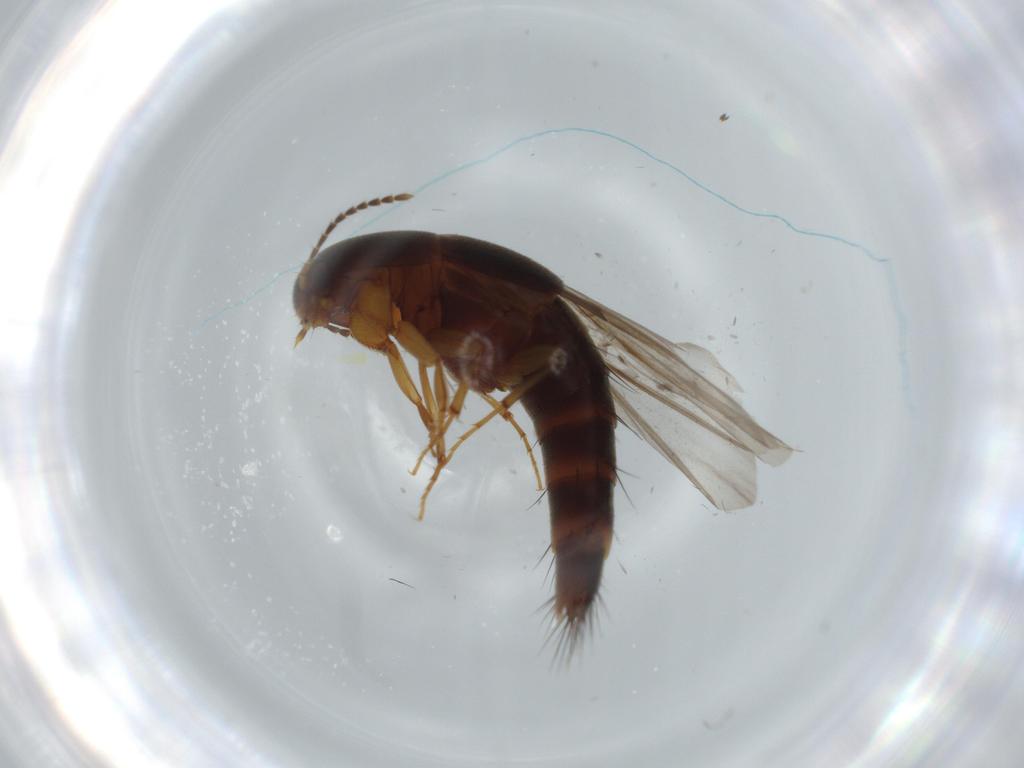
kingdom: Animalia
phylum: Arthropoda
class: Insecta
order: Coleoptera
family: Staphylinidae
